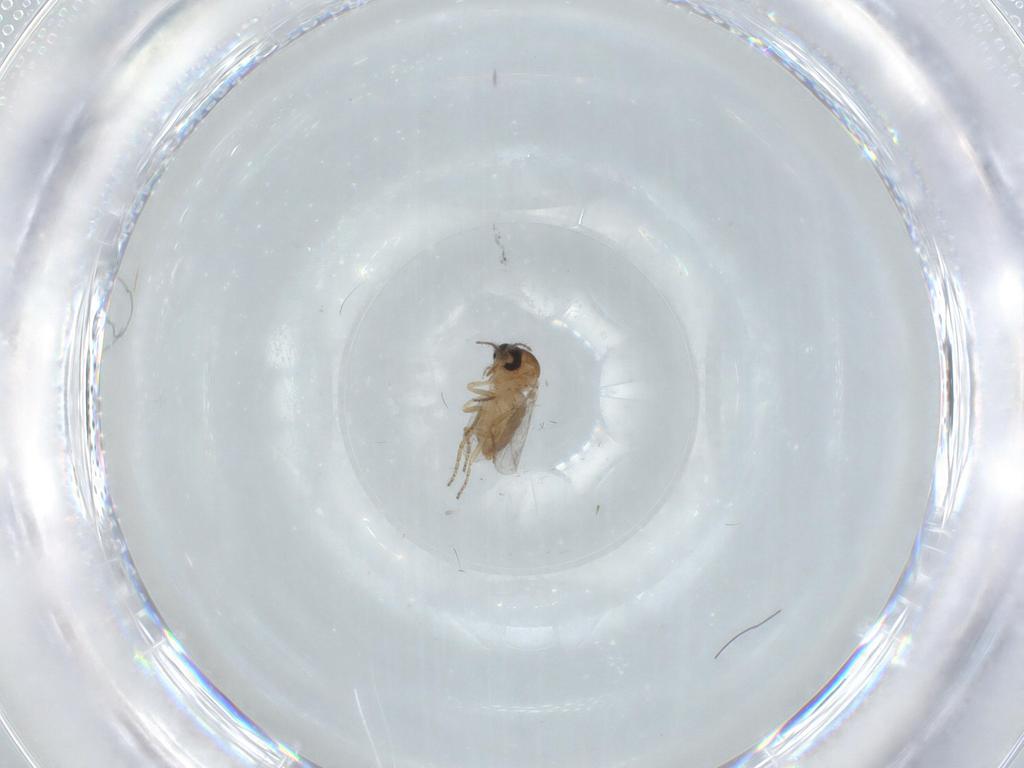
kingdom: Animalia
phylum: Arthropoda
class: Insecta
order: Diptera
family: Ceratopogonidae
